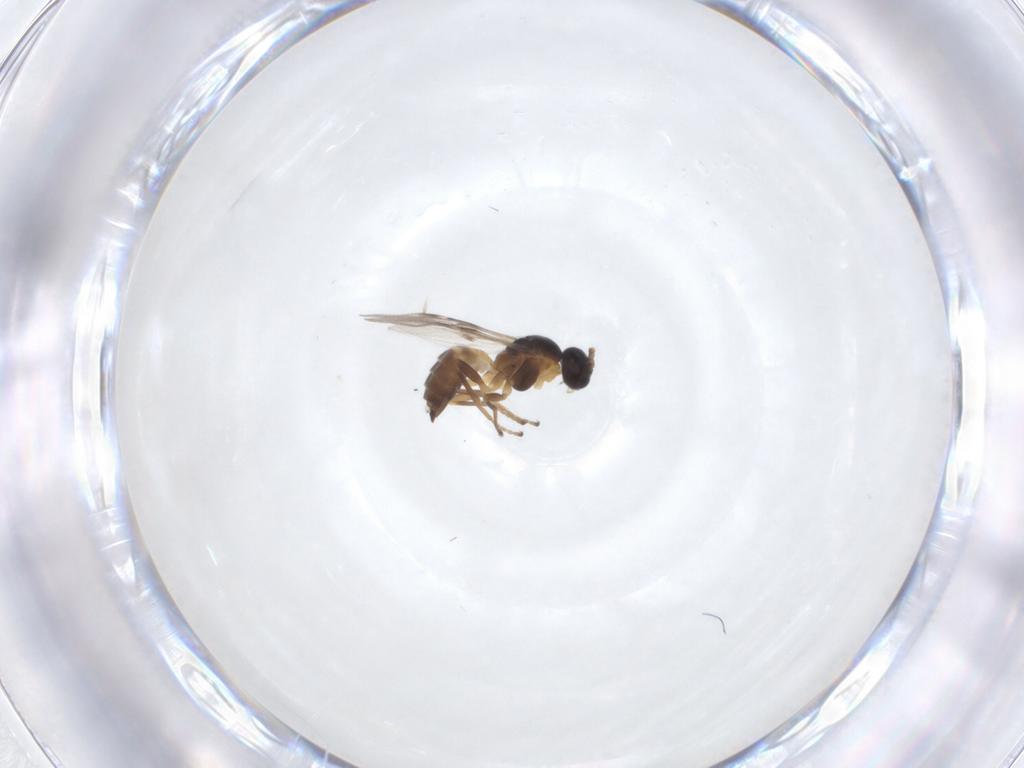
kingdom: Animalia
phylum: Arthropoda
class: Insecta
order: Hymenoptera
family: Braconidae
